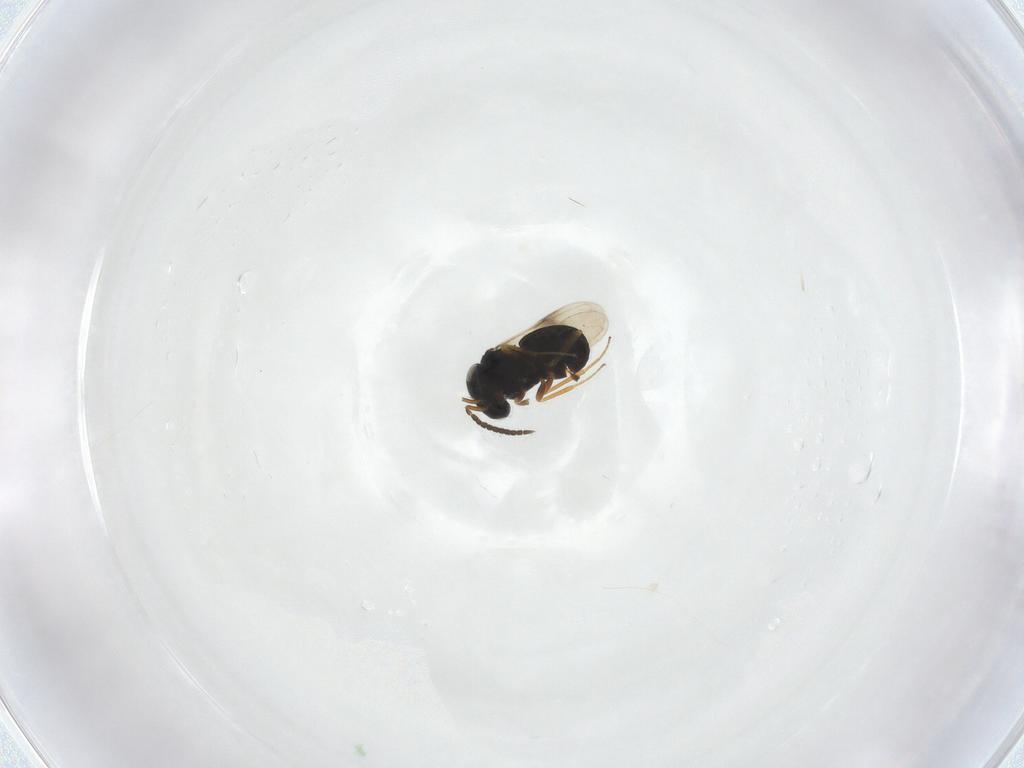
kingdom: Animalia
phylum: Arthropoda
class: Insecta
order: Hymenoptera
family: Scelionidae
